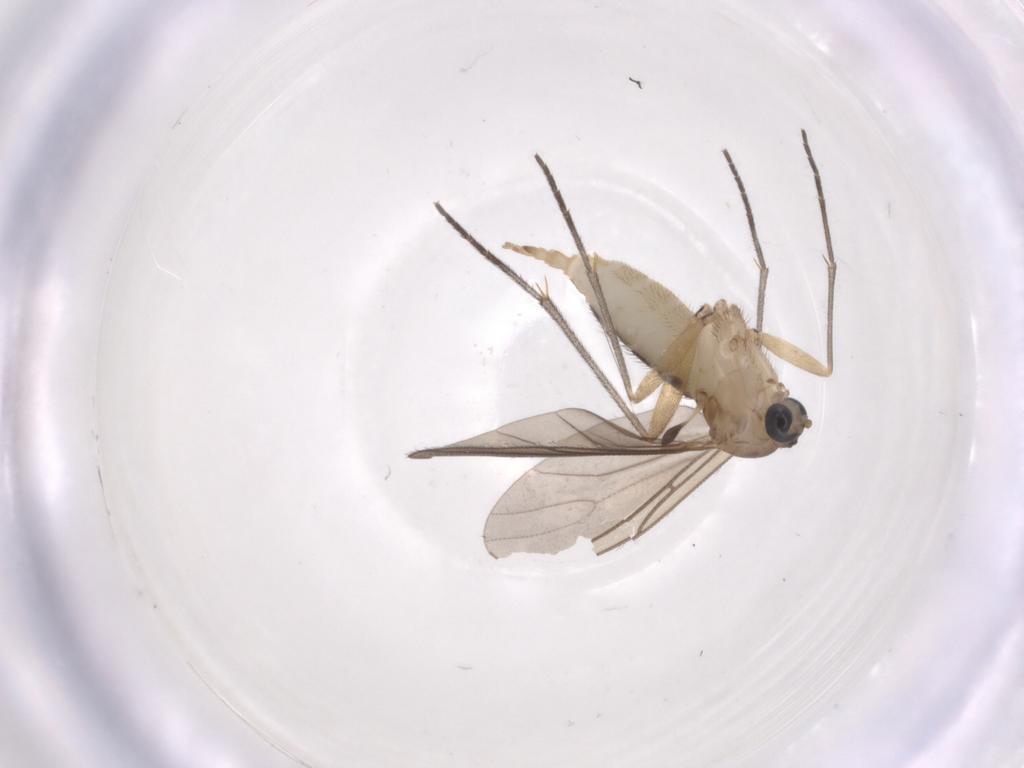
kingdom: Animalia
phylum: Arthropoda
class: Insecta
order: Diptera
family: Sciaridae
